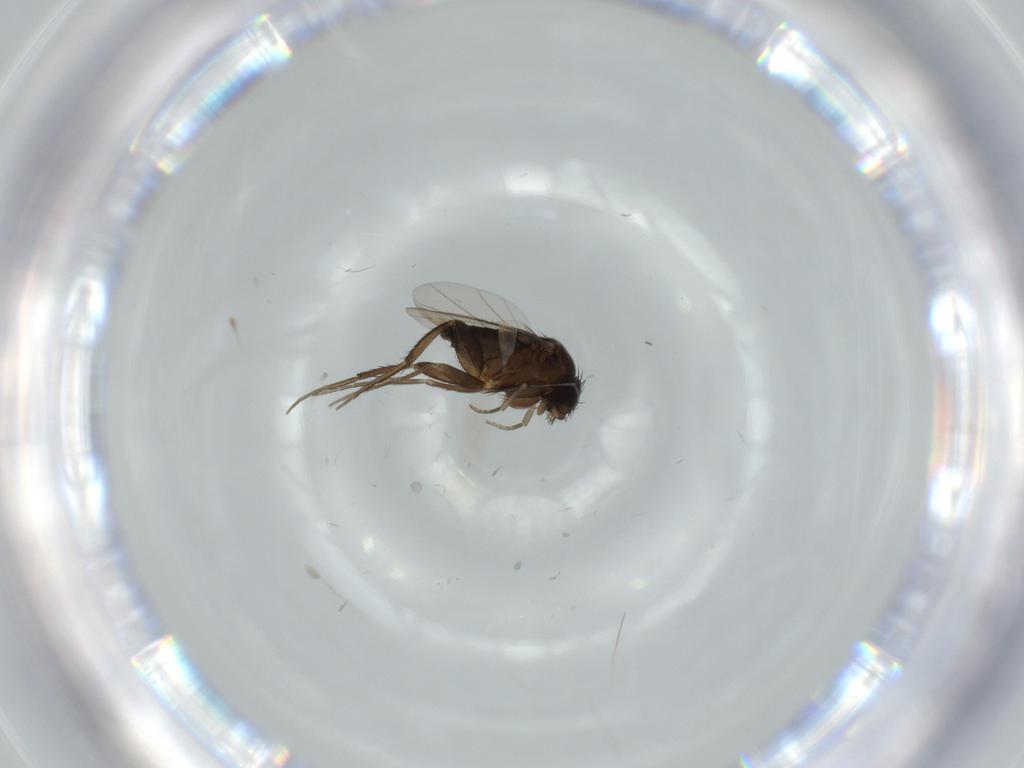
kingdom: Animalia
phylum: Arthropoda
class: Insecta
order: Diptera
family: Phoridae
